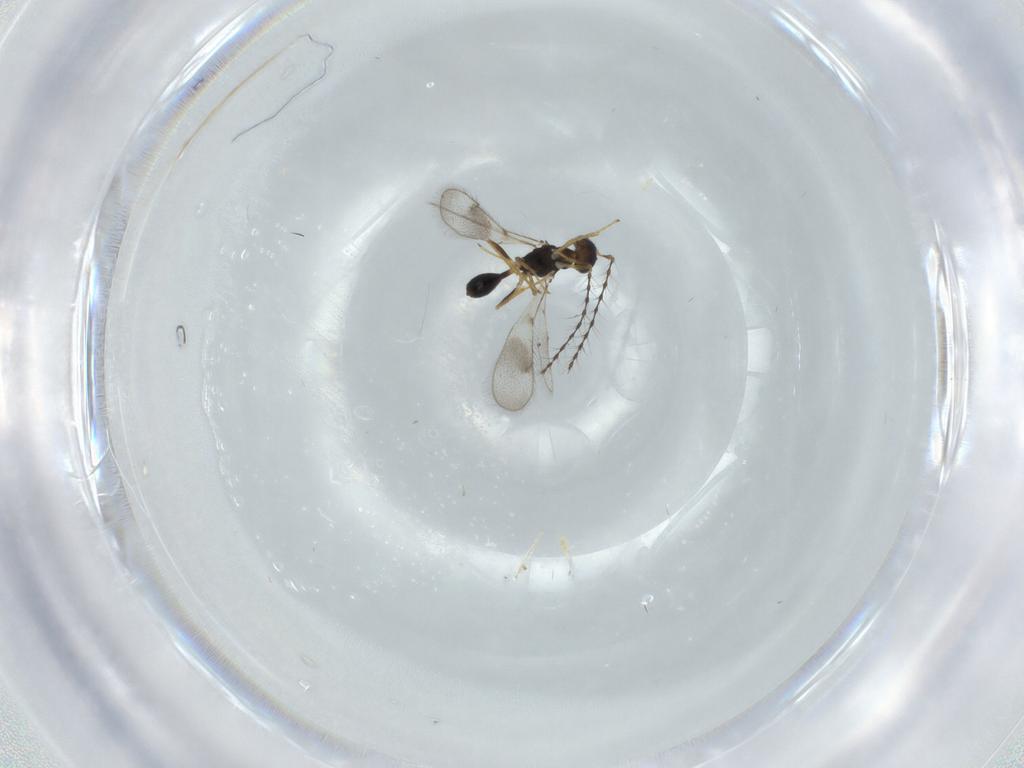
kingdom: Animalia
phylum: Arthropoda
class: Insecta
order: Hymenoptera
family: Diparidae
